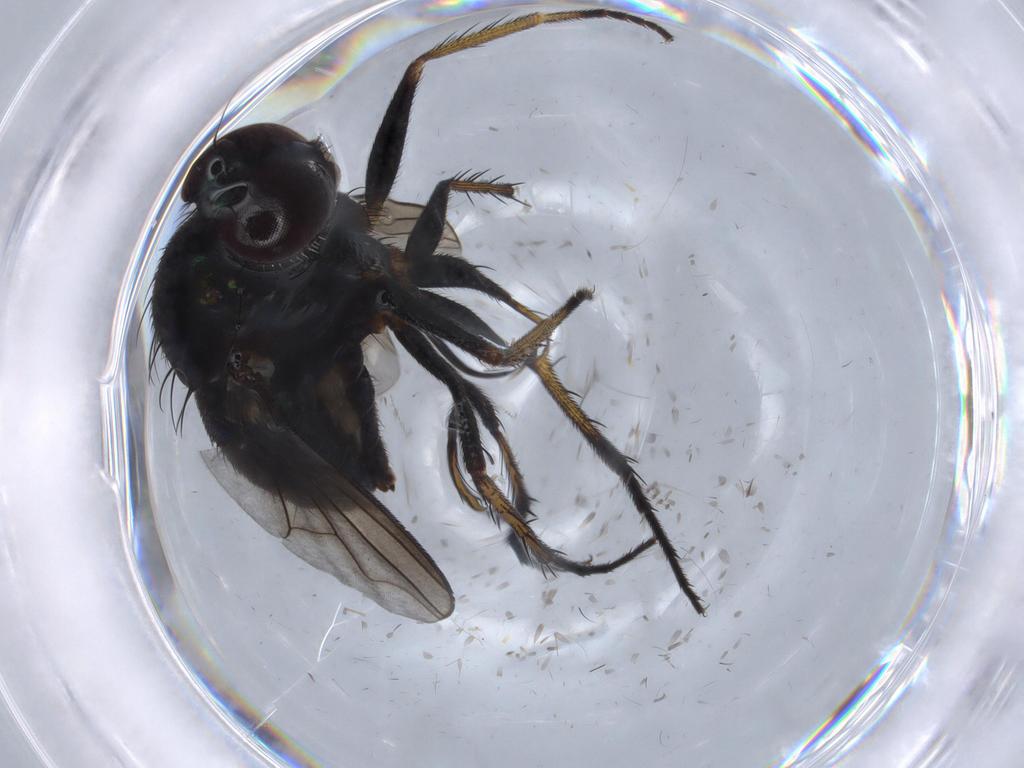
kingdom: Animalia
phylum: Arthropoda
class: Insecta
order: Diptera
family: Dolichopodidae
